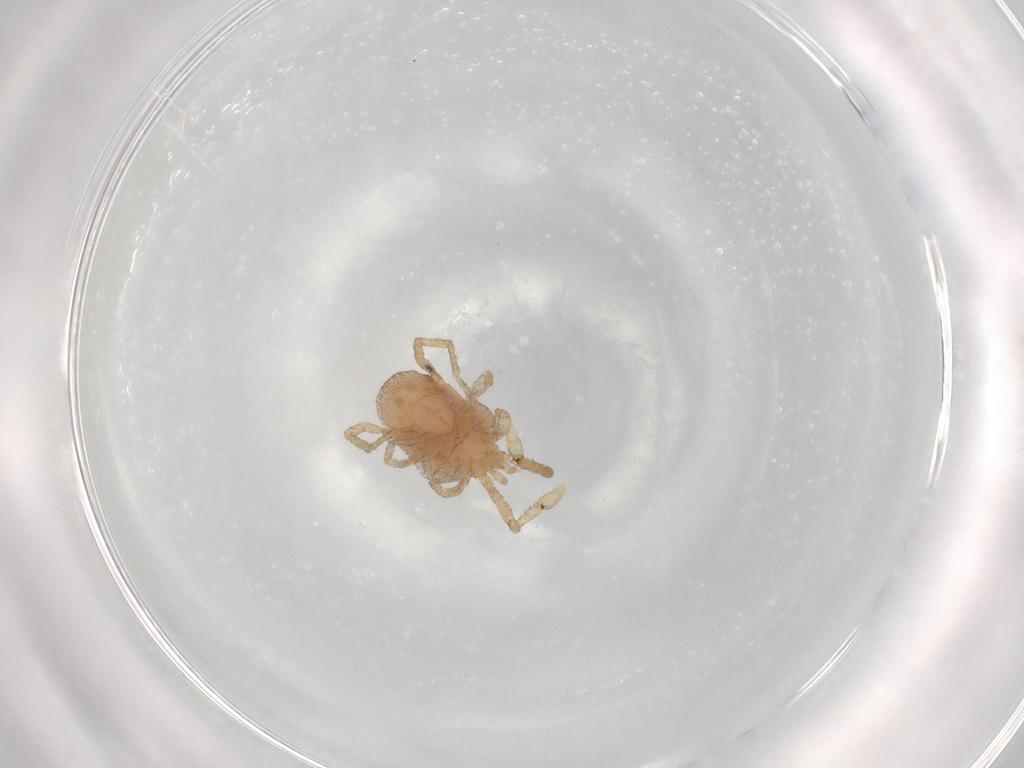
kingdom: Animalia
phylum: Arthropoda
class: Arachnida
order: Trombidiformes
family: Erythraeidae
